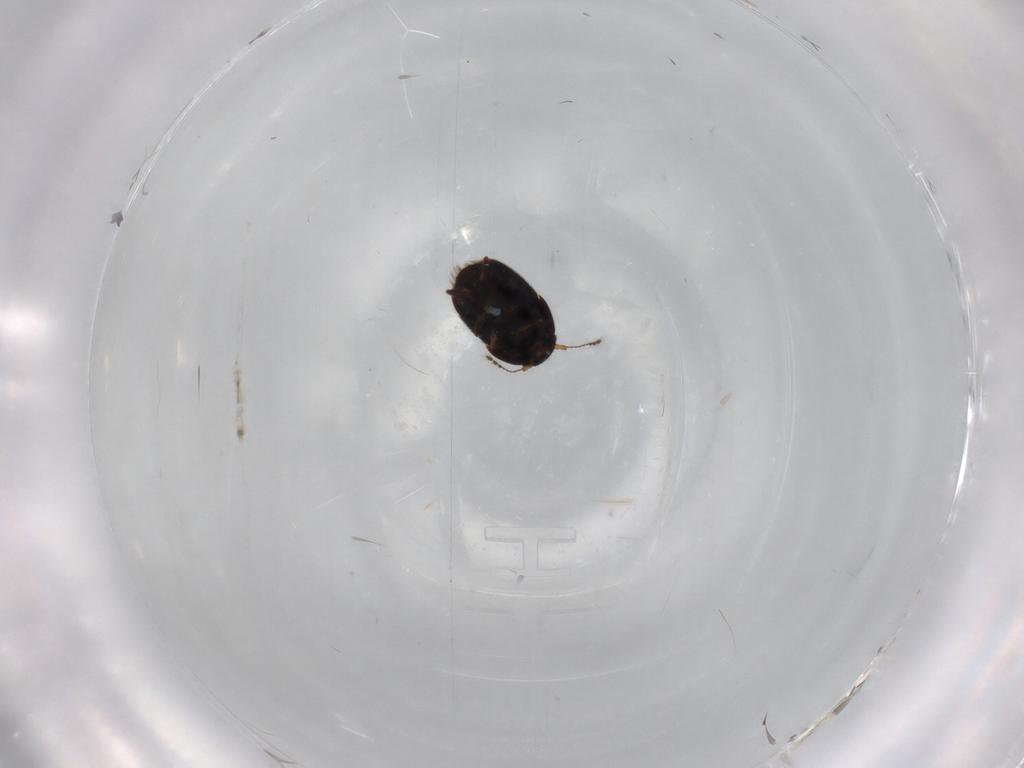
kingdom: Animalia
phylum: Arthropoda
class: Insecta
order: Coleoptera
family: Ptiliidae
